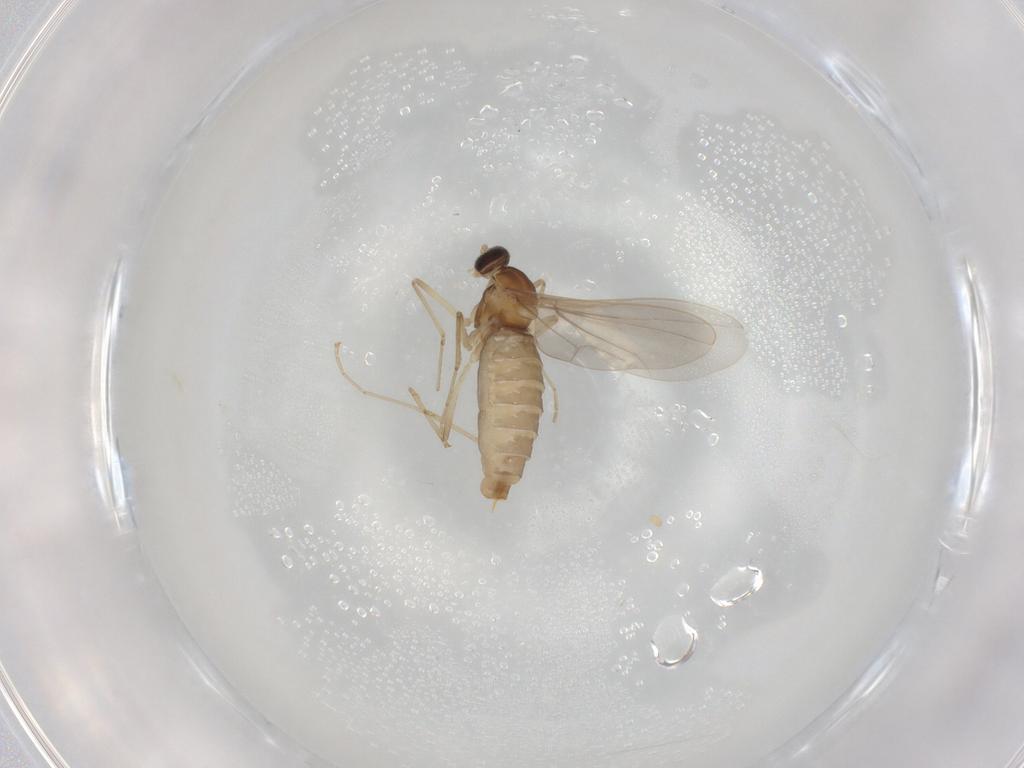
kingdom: Animalia
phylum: Arthropoda
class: Insecta
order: Diptera
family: Cecidomyiidae
